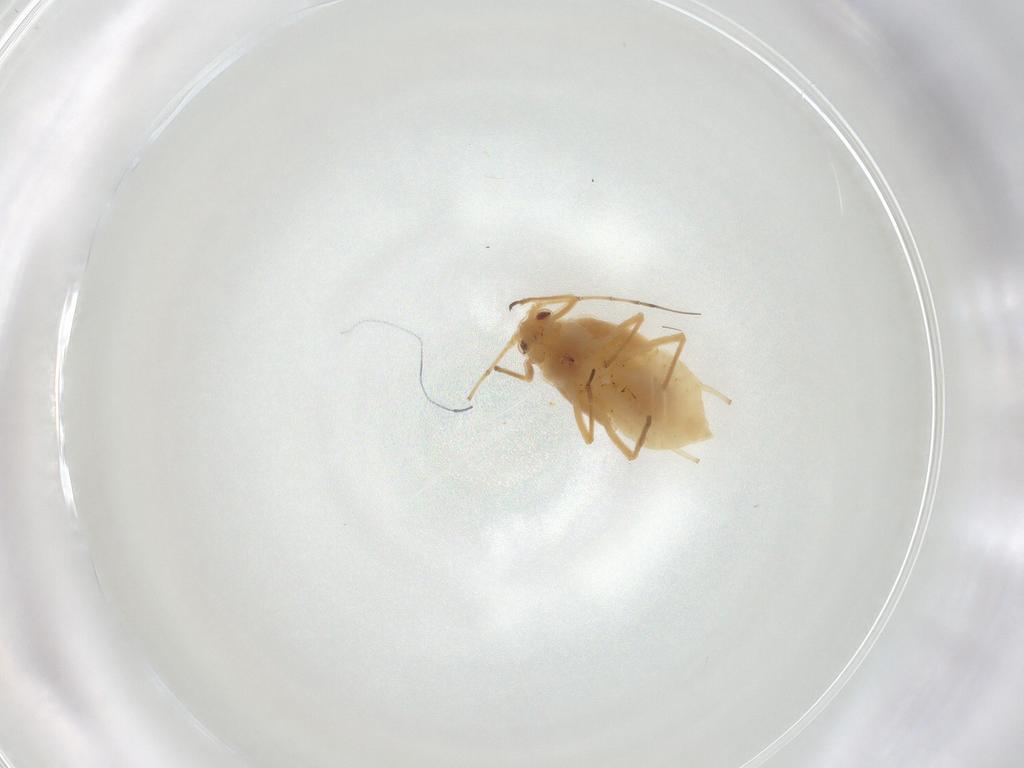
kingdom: Animalia
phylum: Arthropoda
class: Insecta
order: Hemiptera
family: Aphididae
